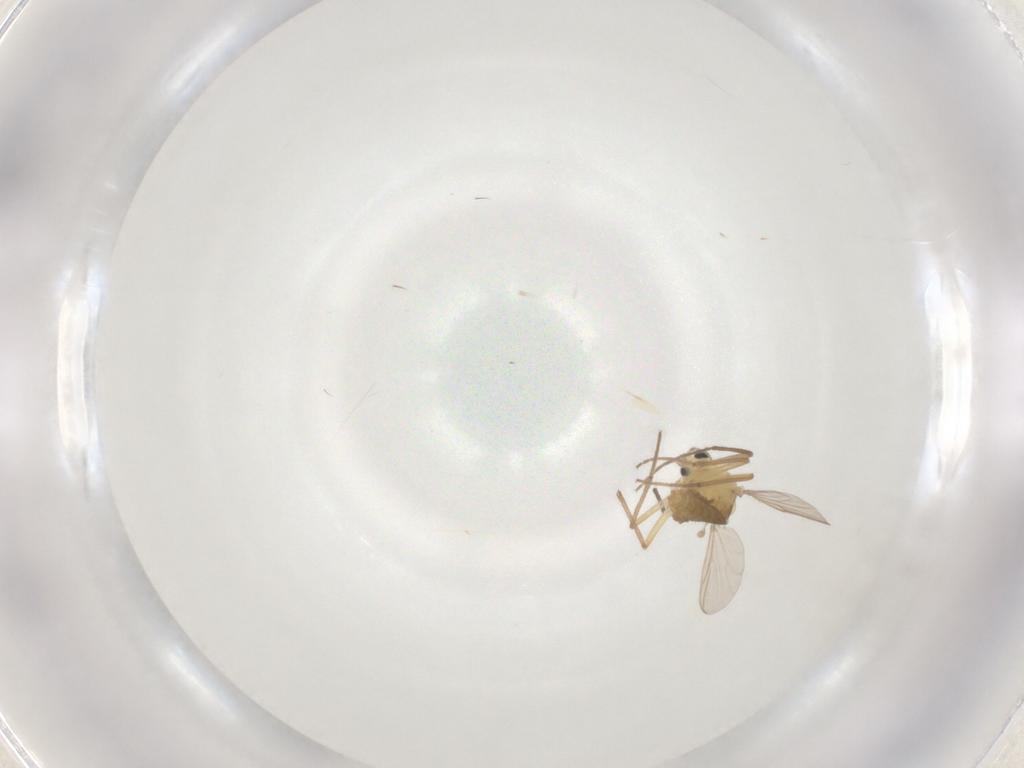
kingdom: Animalia
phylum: Arthropoda
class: Insecta
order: Diptera
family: Chironomidae
